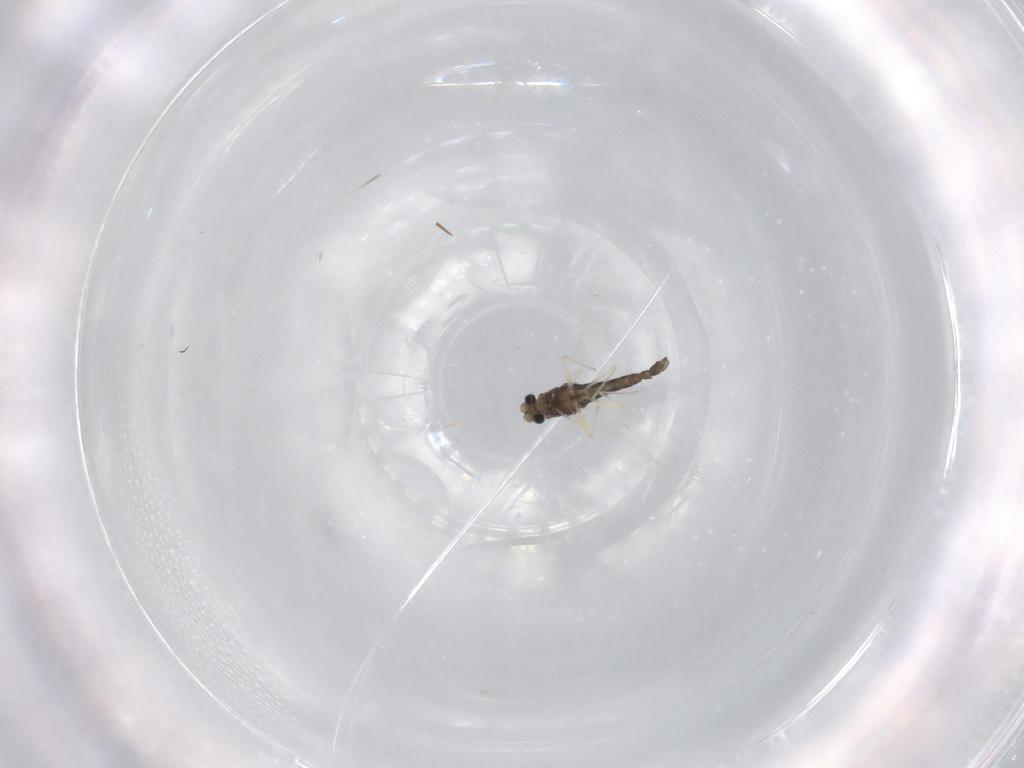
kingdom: Animalia
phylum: Arthropoda
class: Insecta
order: Diptera
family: Chironomidae
